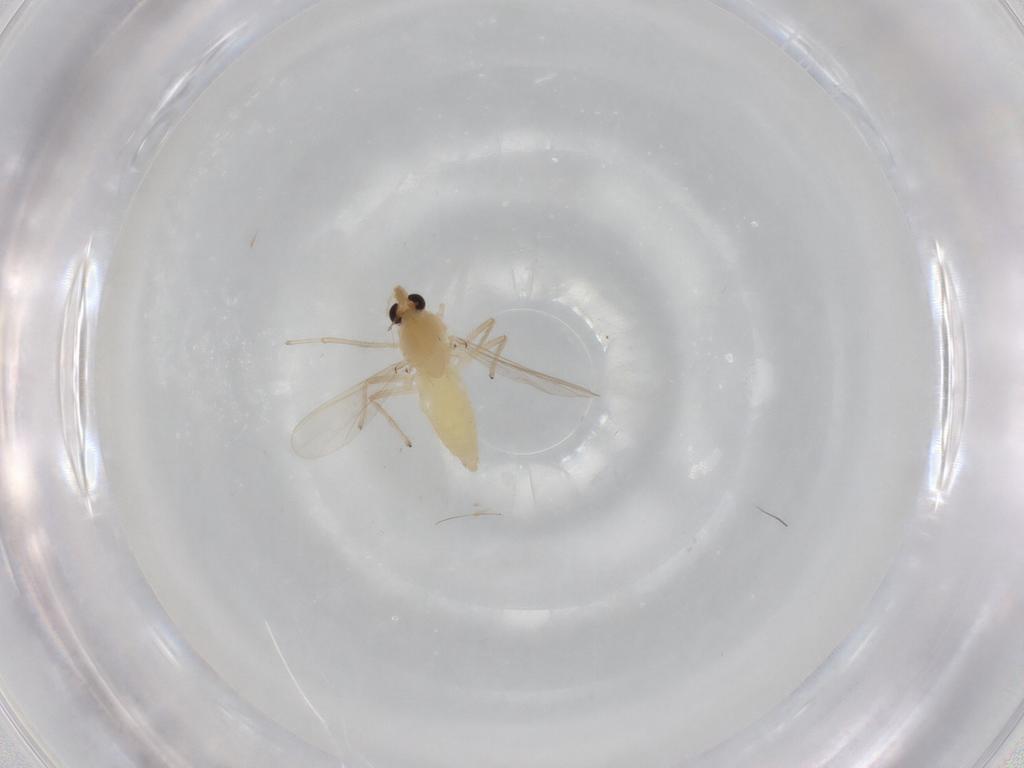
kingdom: Animalia
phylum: Arthropoda
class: Insecta
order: Diptera
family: Chironomidae
